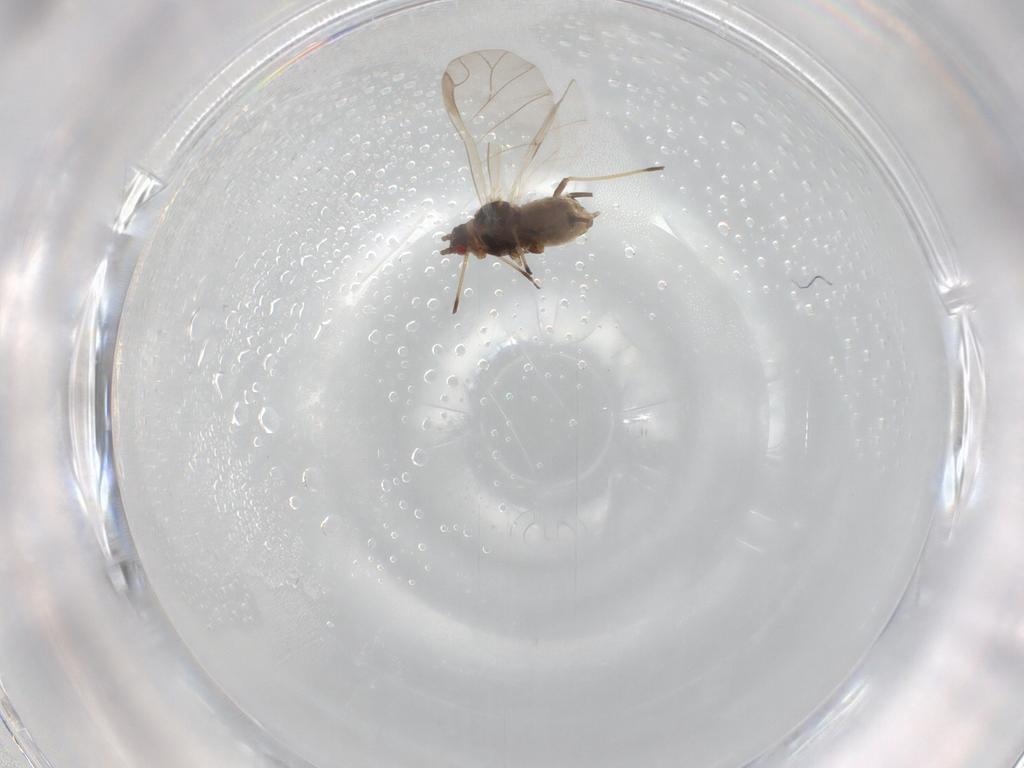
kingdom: Animalia
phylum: Arthropoda
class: Insecta
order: Hemiptera
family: Aphididae
